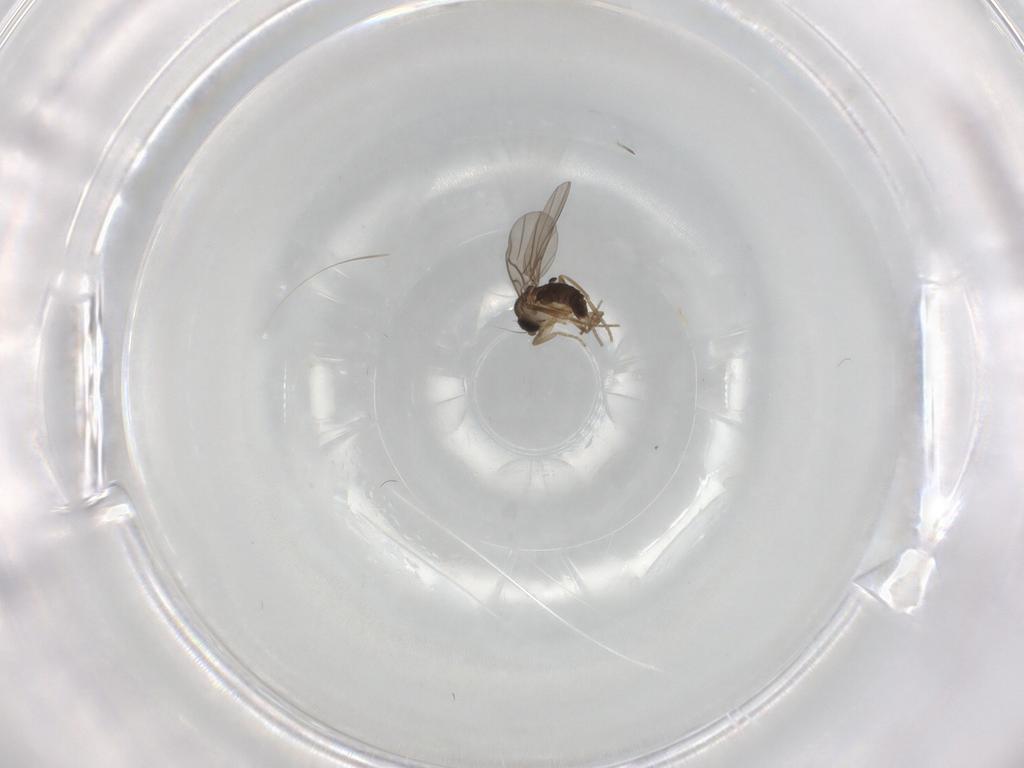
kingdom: Animalia
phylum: Arthropoda
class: Insecta
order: Diptera
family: Phoridae
